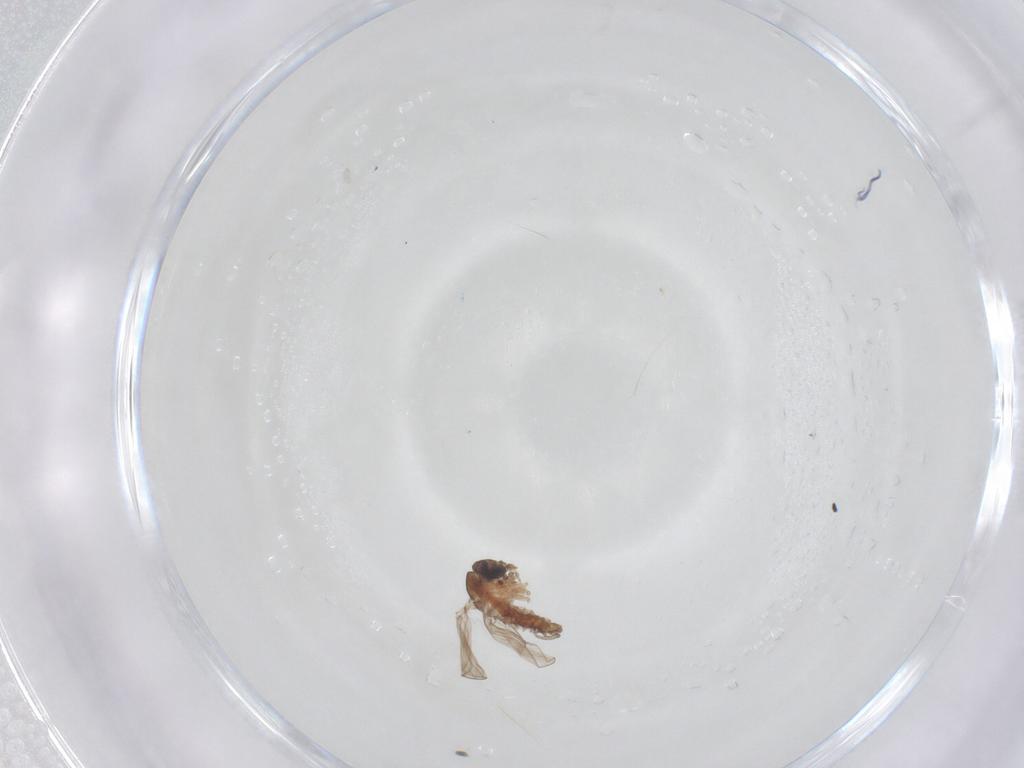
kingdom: Animalia
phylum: Arthropoda
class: Insecta
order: Diptera
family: Psychodidae
